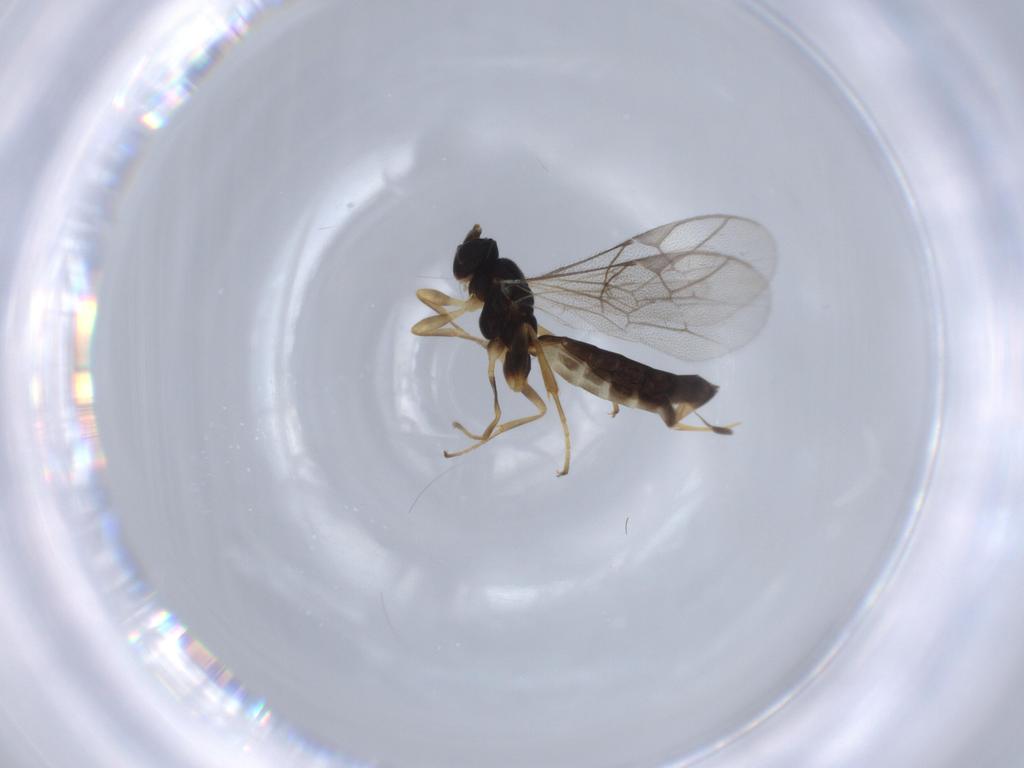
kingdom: Animalia
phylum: Arthropoda
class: Insecta
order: Hymenoptera
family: Ichneumonidae
